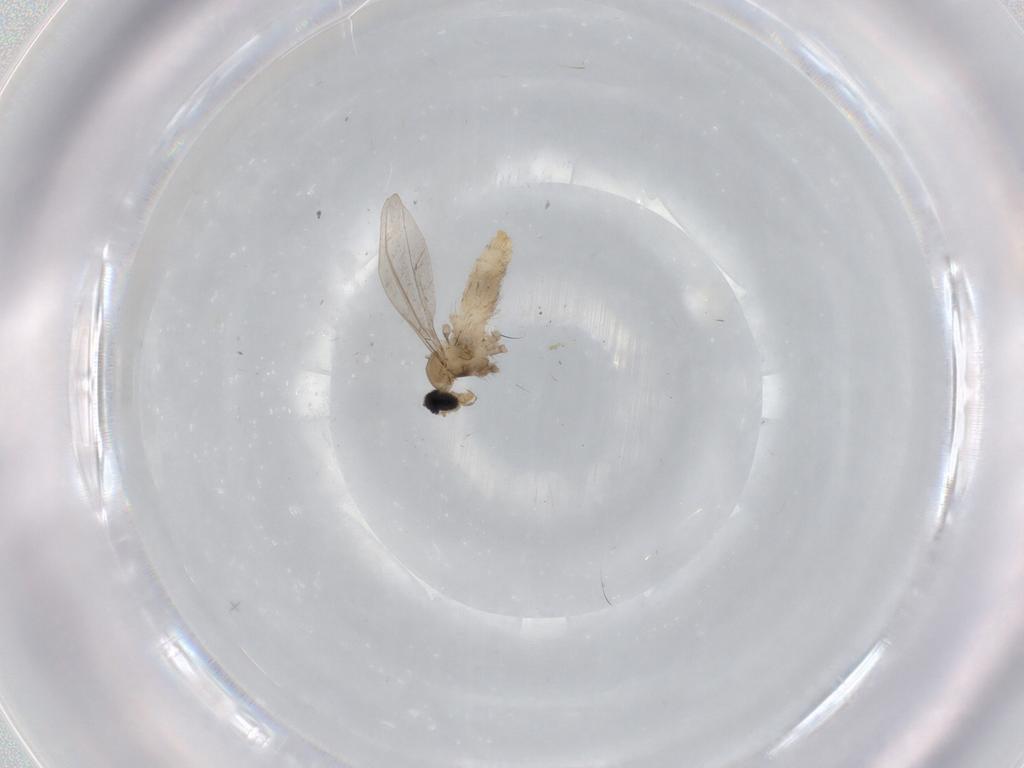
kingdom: Animalia
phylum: Arthropoda
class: Insecta
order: Diptera
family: Cecidomyiidae
